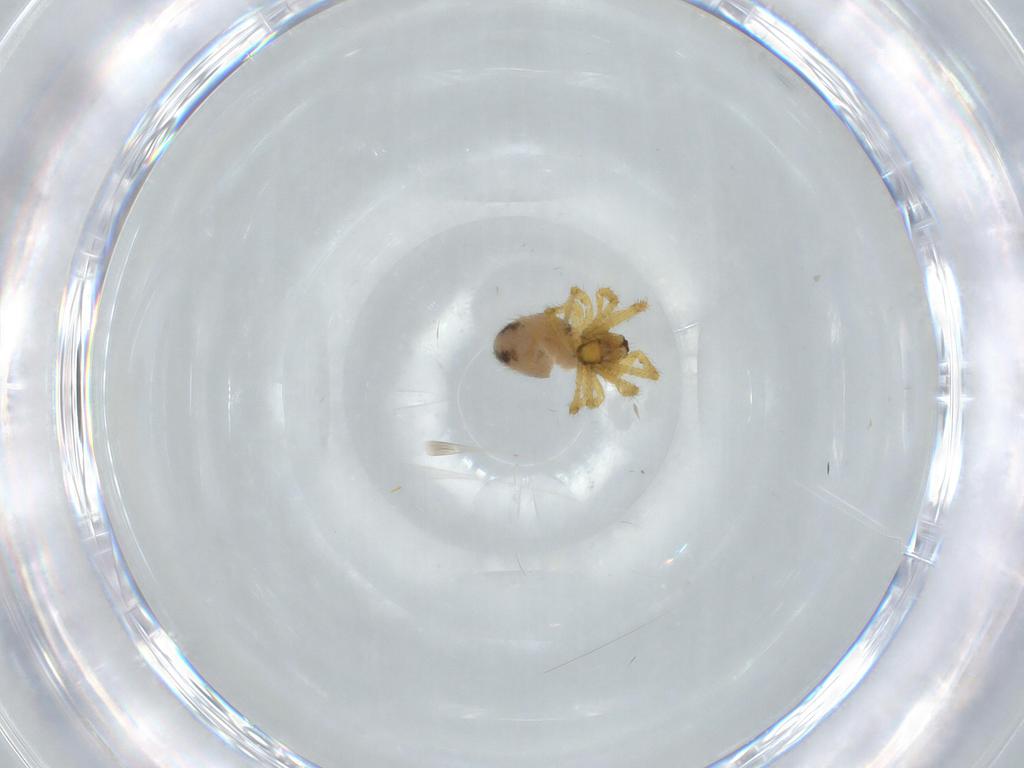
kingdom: Animalia
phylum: Arthropoda
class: Arachnida
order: Araneae
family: Theridiidae
